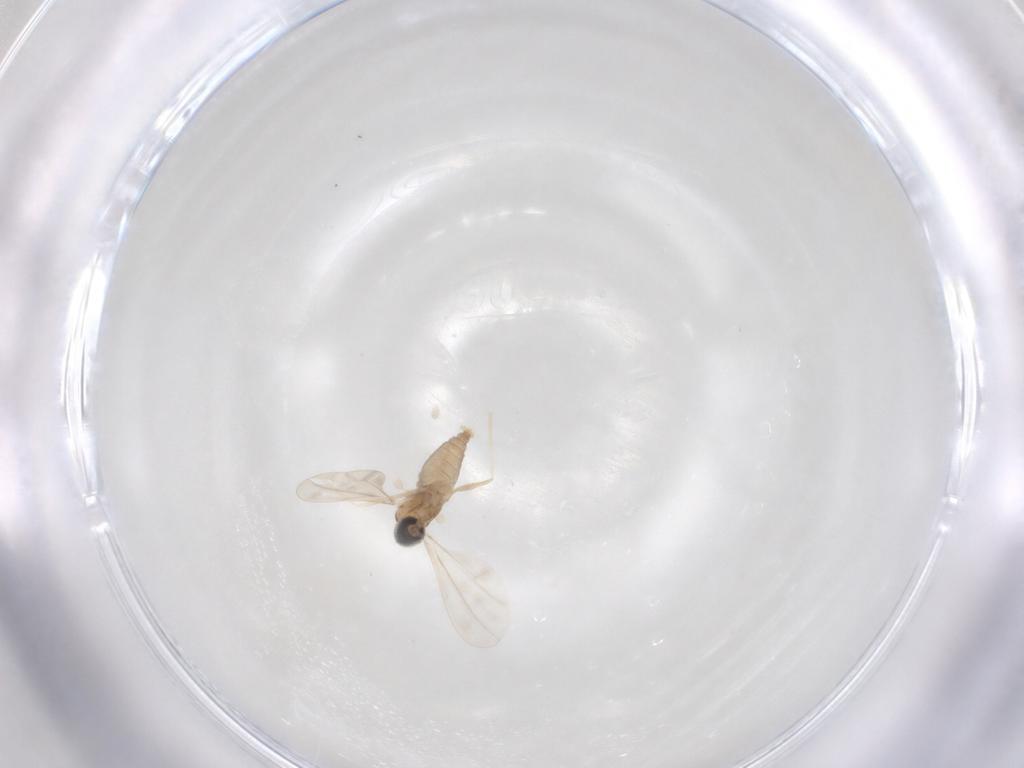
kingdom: Animalia
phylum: Arthropoda
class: Insecta
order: Diptera
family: Cecidomyiidae
